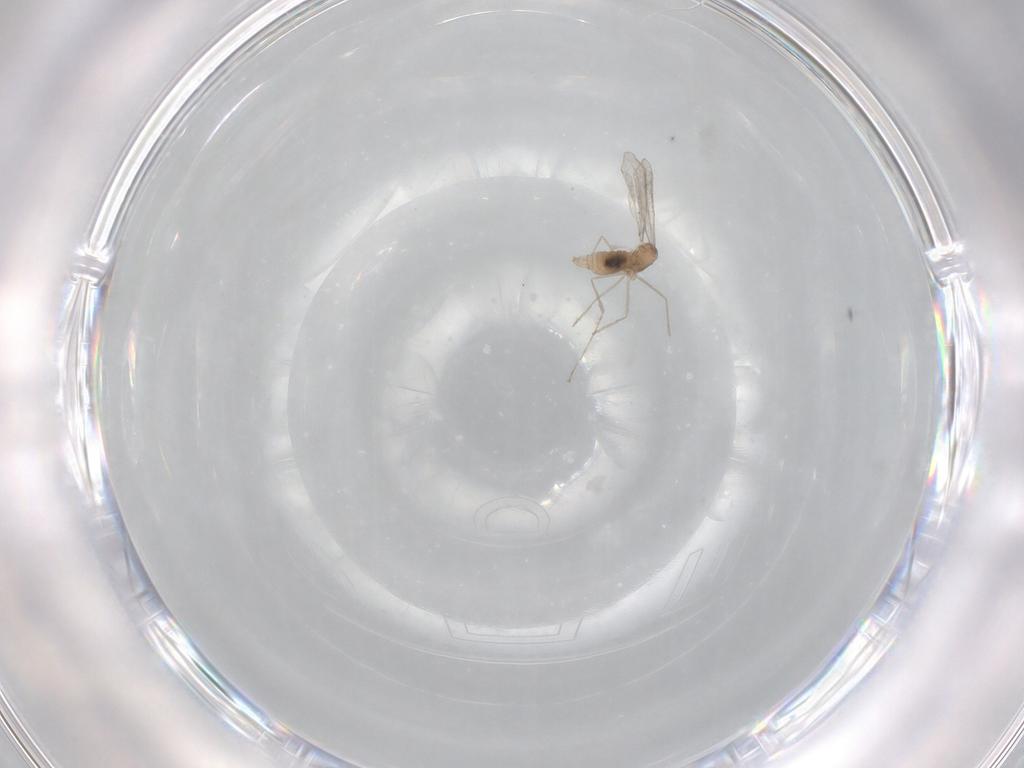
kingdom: Animalia
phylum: Arthropoda
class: Insecta
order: Diptera
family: Cecidomyiidae
